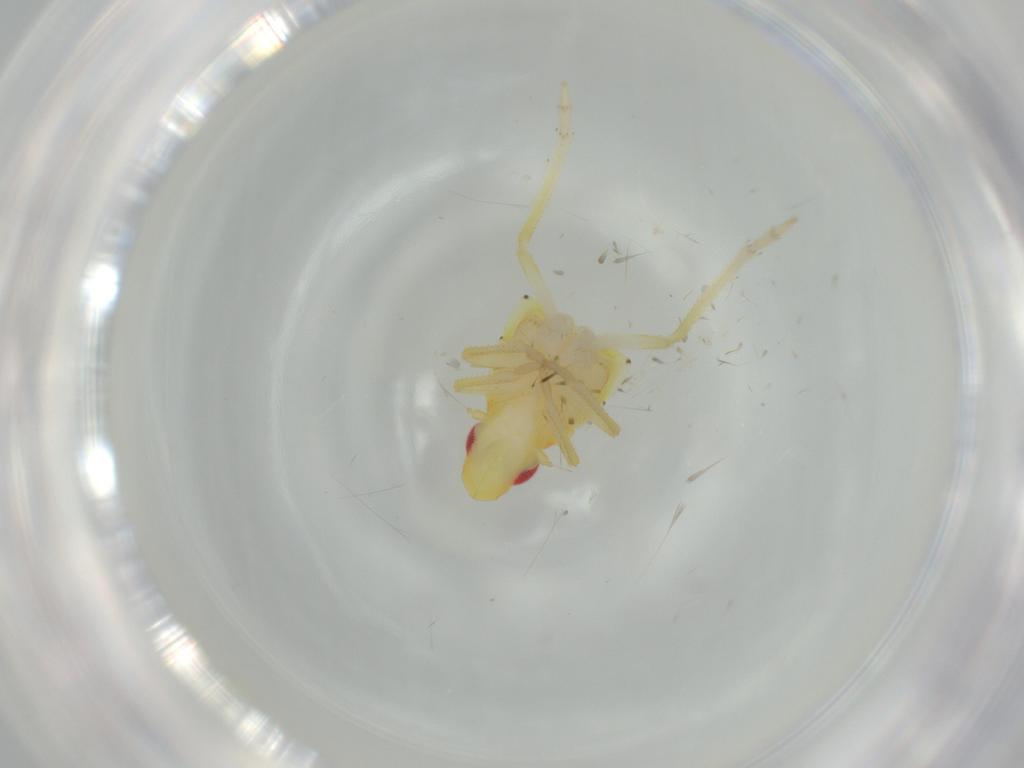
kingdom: Animalia
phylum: Arthropoda
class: Insecta
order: Hemiptera
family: Tropiduchidae
